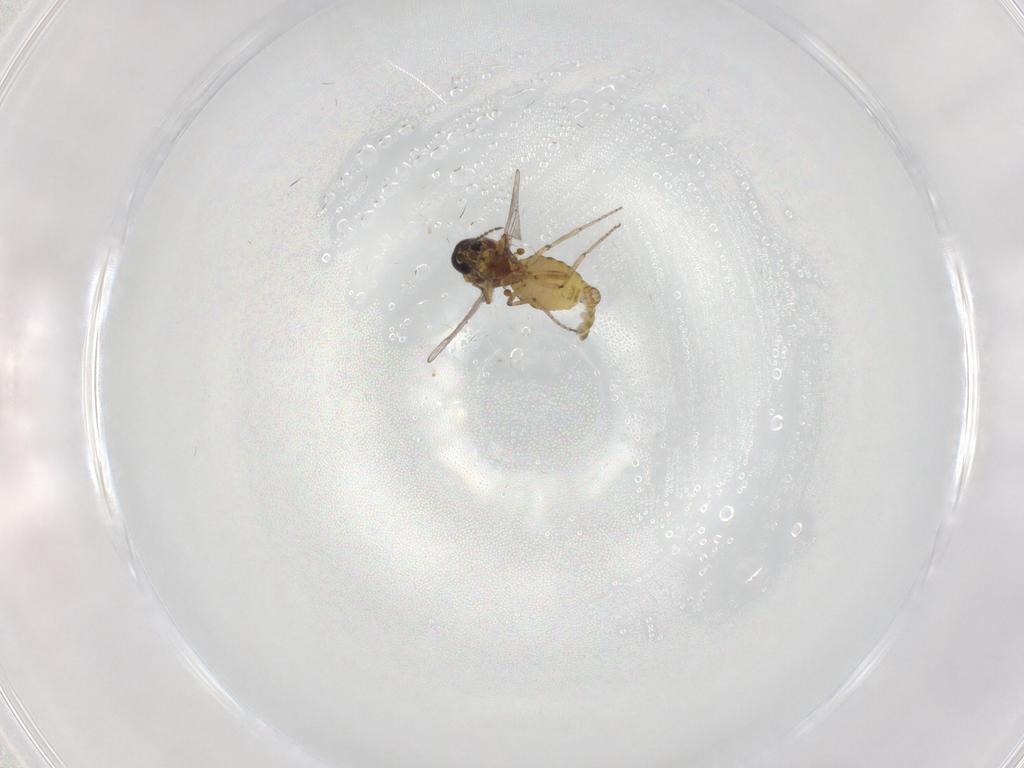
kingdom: Animalia
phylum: Arthropoda
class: Insecta
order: Diptera
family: Ceratopogonidae
